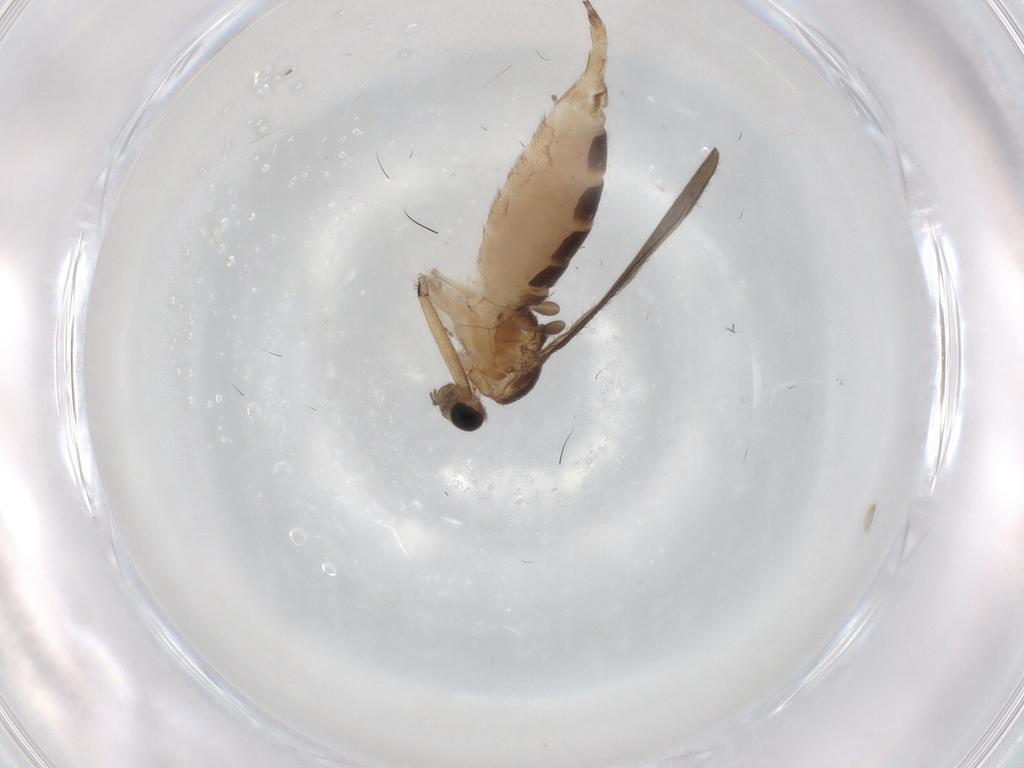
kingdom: Animalia
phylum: Arthropoda
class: Insecta
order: Diptera
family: Sciaridae
